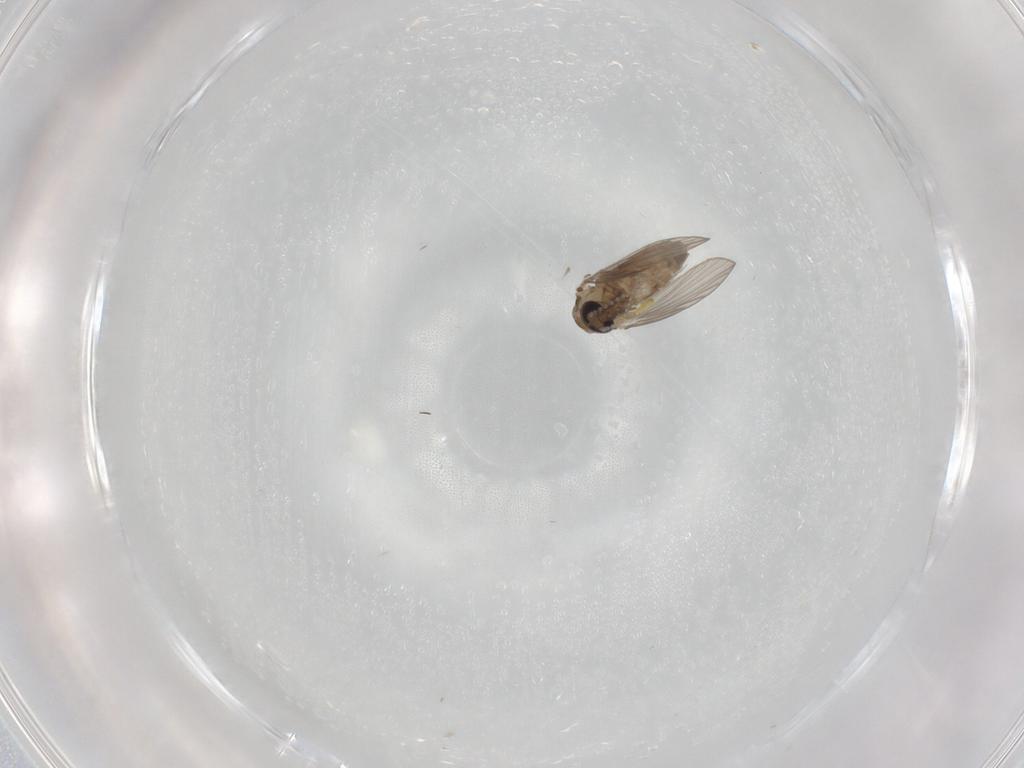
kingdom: Animalia
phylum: Arthropoda
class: Insecta
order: Diptera
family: Psychodidae
